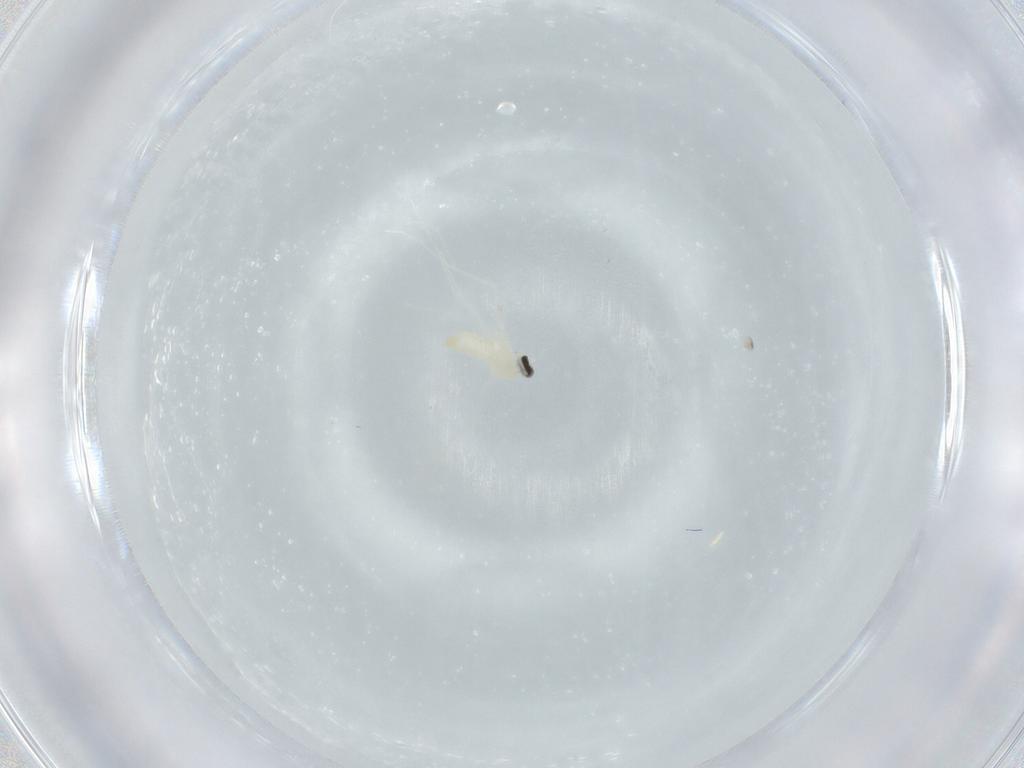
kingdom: Animalia
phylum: Arthropoda
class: Insecta
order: Diptera
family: Cecidomyiidae
